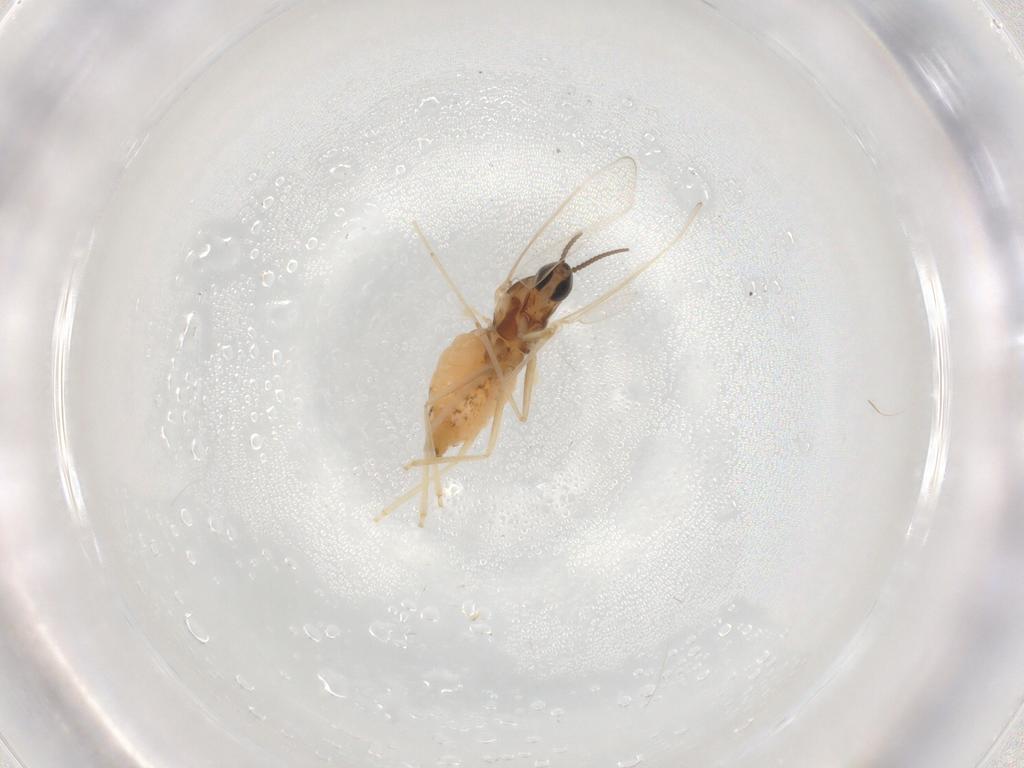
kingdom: Animalia
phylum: Arthropoda
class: Insecta
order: Diptera
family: Cecidomyiidae
